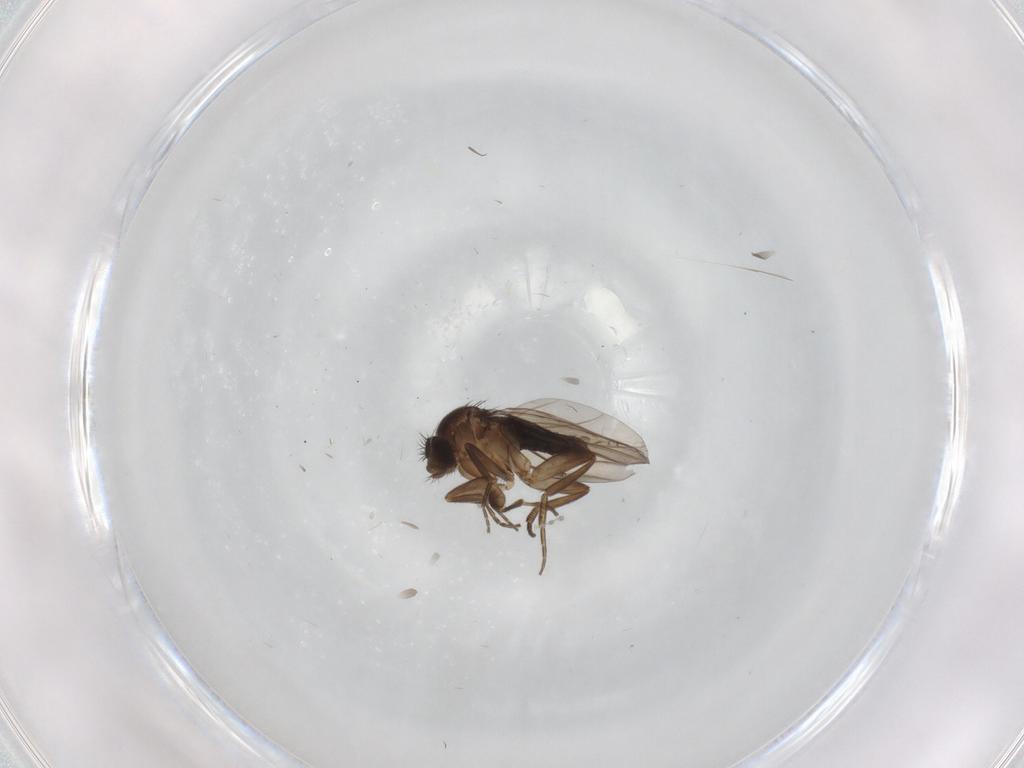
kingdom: Animalia
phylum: Arthropoda
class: Insecta
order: Diptera
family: Phoridae
